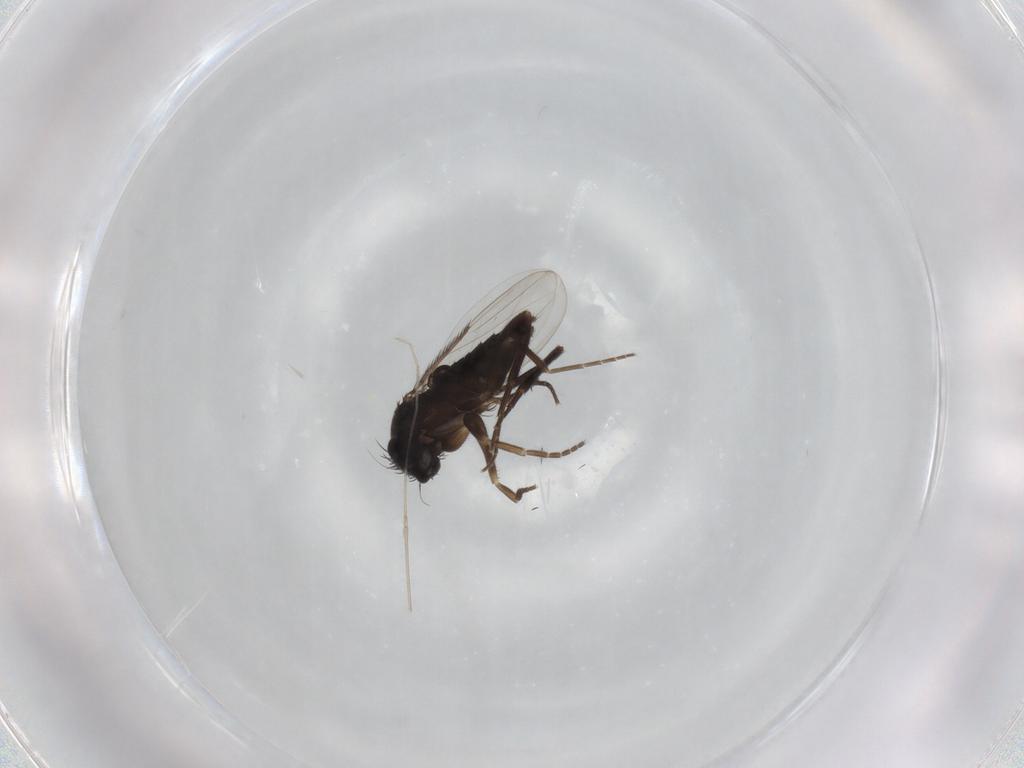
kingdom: Animalia
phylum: Arthropoda
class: Insecta
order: Diptera
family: Phoridae
